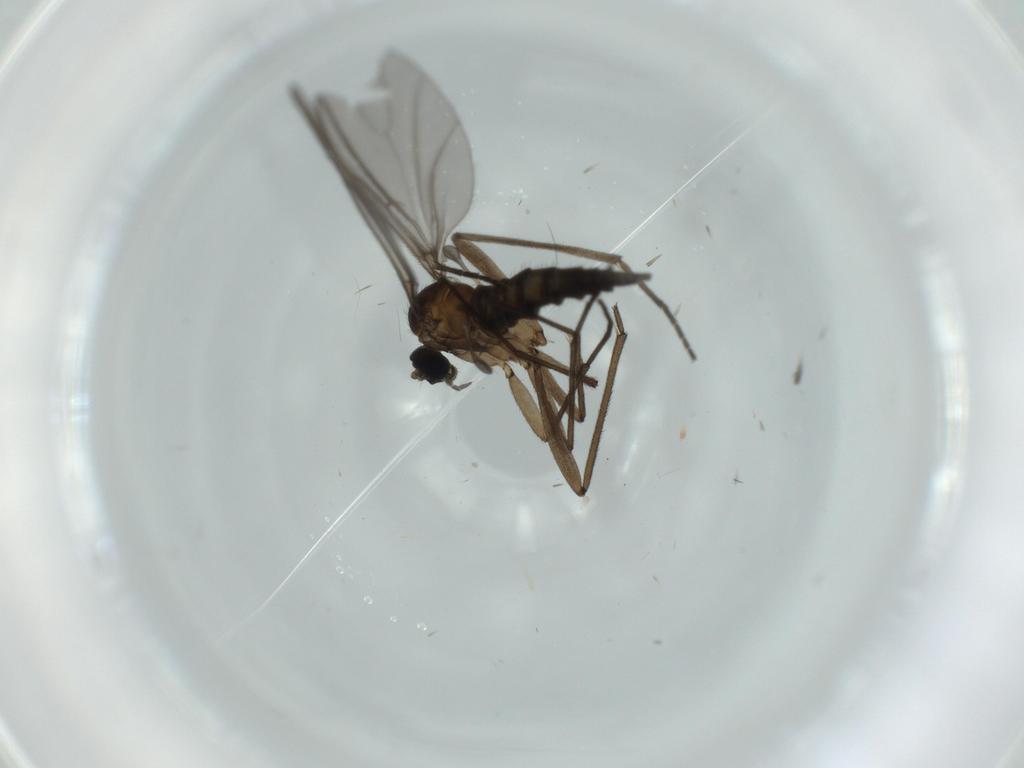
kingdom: Animalia
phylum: Arthropoda
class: Insecta
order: Diptera
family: Sciaridae
